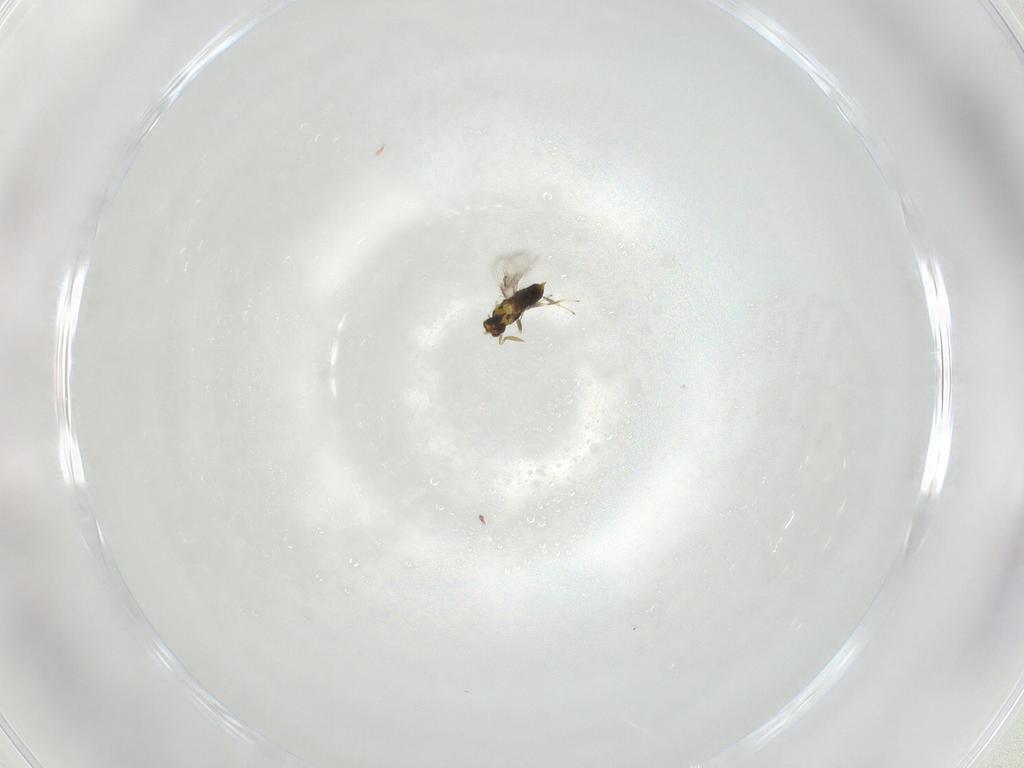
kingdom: Animalia
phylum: Arthropoda
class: Insecta
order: Hymenoptera
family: Aphelinidae
